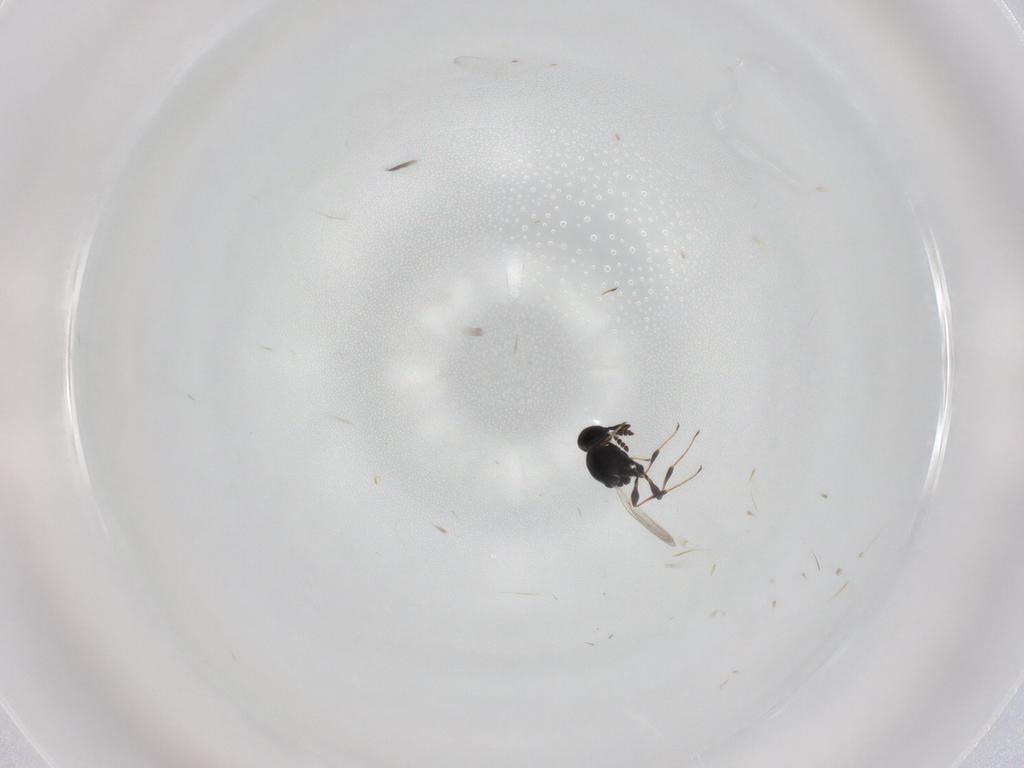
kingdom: Animalia
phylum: Arthropoda
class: Insecta
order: Hymenoptera
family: Platygastridae
